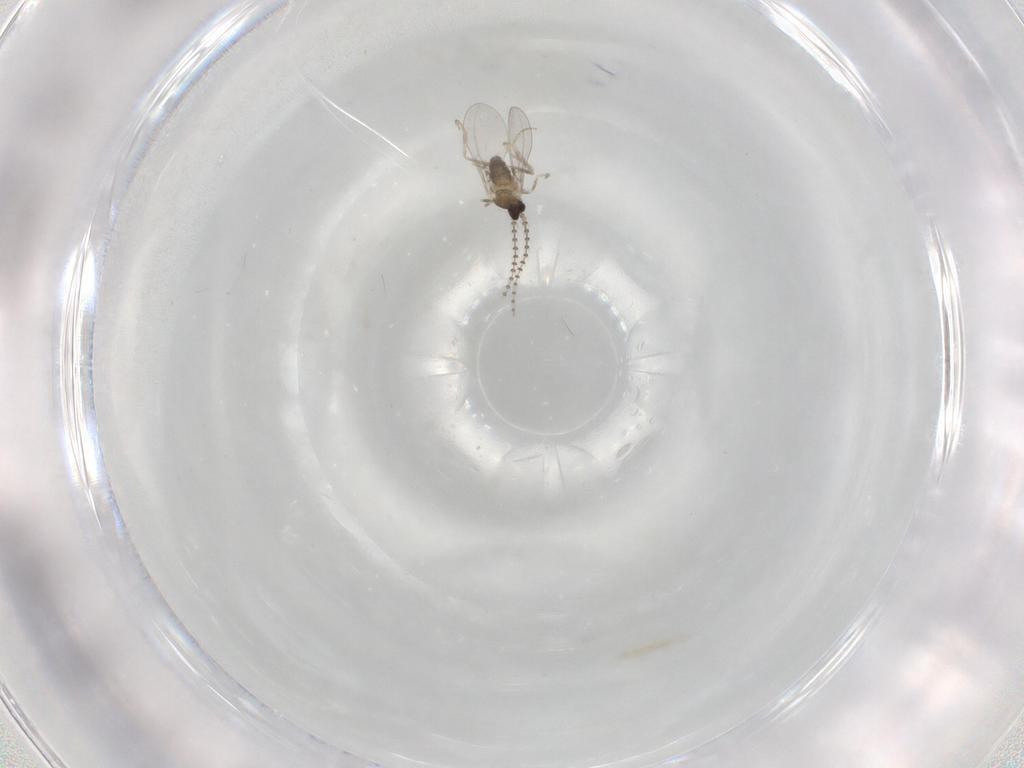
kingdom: Animalia
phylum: Arthropoda
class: Insecta
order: Diptera
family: Cecidomyiidae
